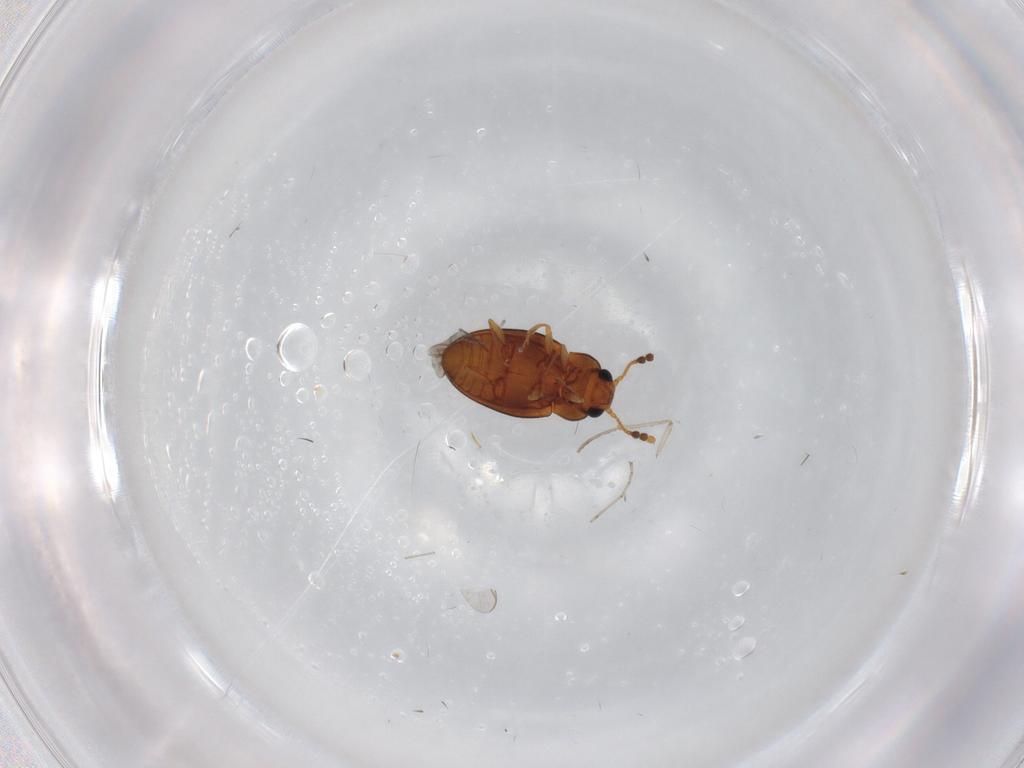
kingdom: Animalia
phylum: Arthropoda
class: Insecta
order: Coleoptera
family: Erotylidae
